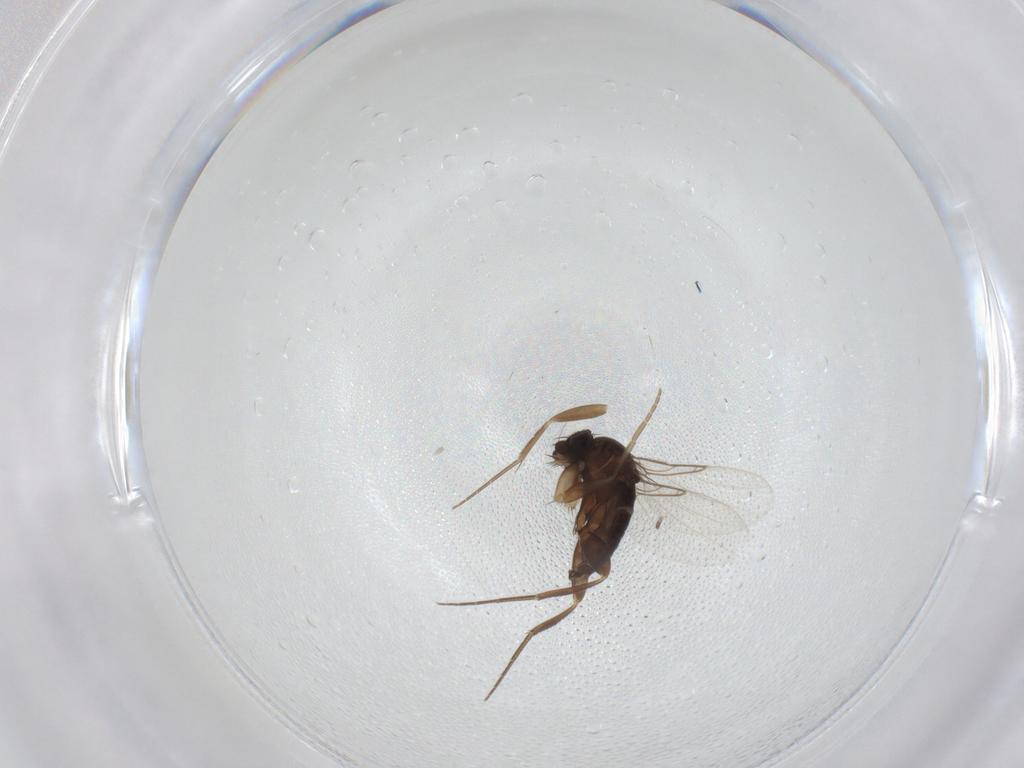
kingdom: Animalia
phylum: Arthropoda
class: Insecta
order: Diptera
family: Phoridae
